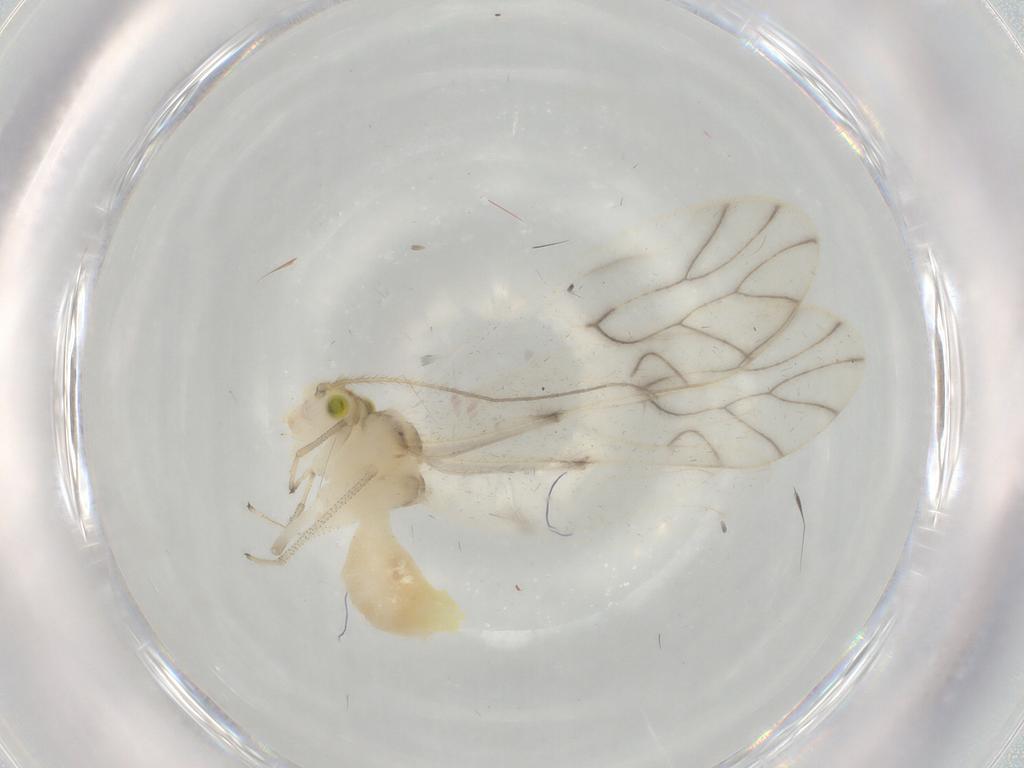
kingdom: Animalia
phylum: Arthropoda
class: Insecta
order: Psocodea
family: Caeciliusidae
